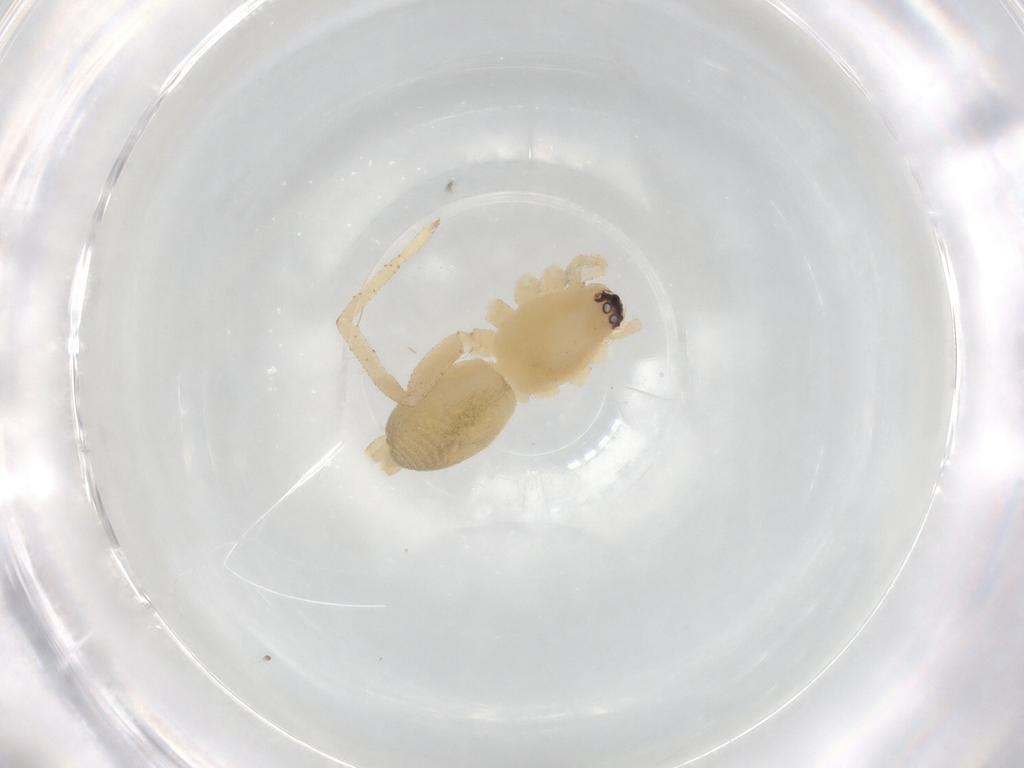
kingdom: Animalia
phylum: Arthropoda
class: Arachnida
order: Araneae
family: Gnaphosidae
